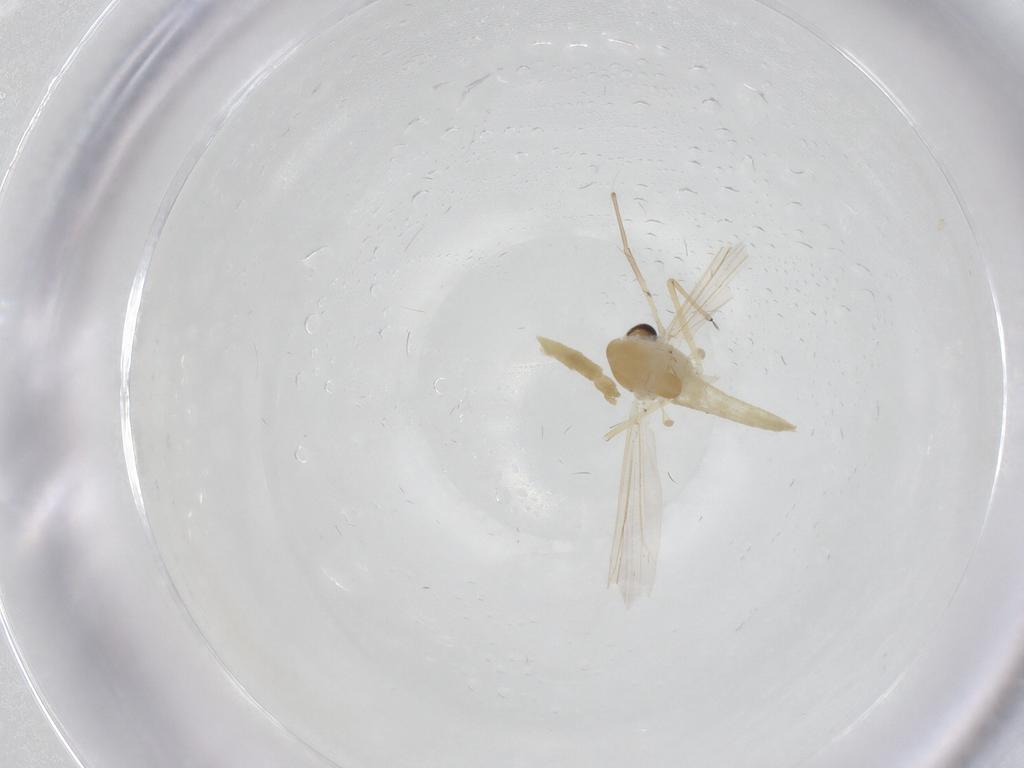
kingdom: Animalia
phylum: Arthropoda
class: Insecta
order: Diptera
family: Chironomidae
